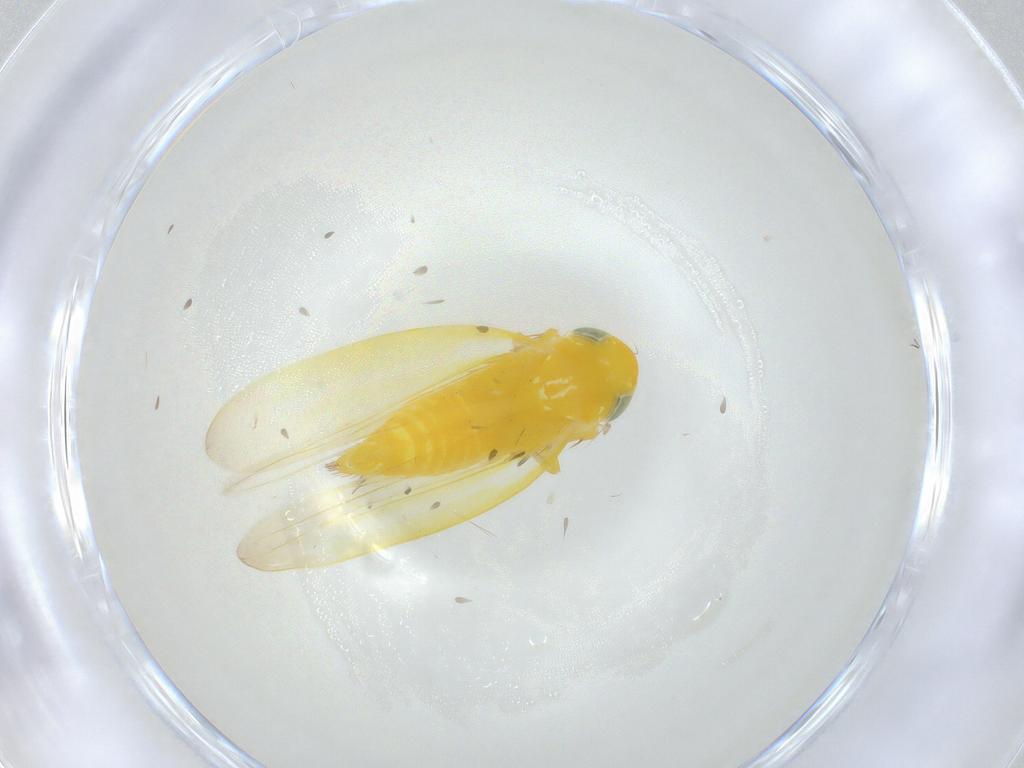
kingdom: Animalia
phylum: Arthropoda
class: Insecta
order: Hemiptera
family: Cicadellidae
